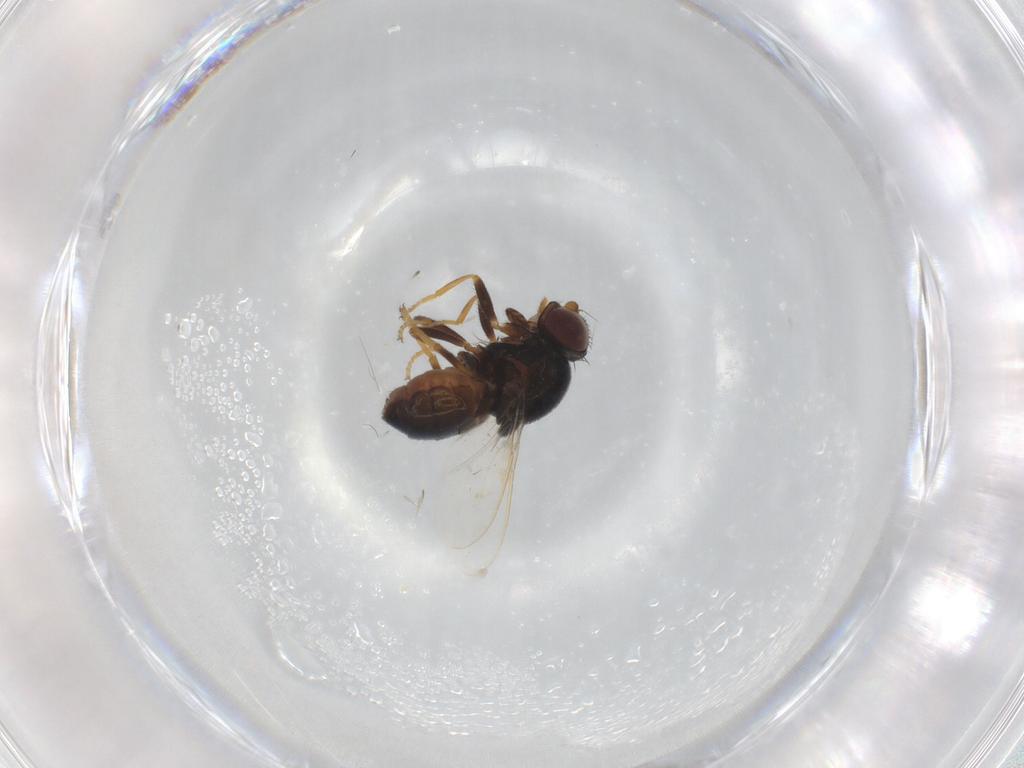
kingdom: Animalia
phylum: Arthropoda
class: Insecta
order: Diptera
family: Chloropidae
